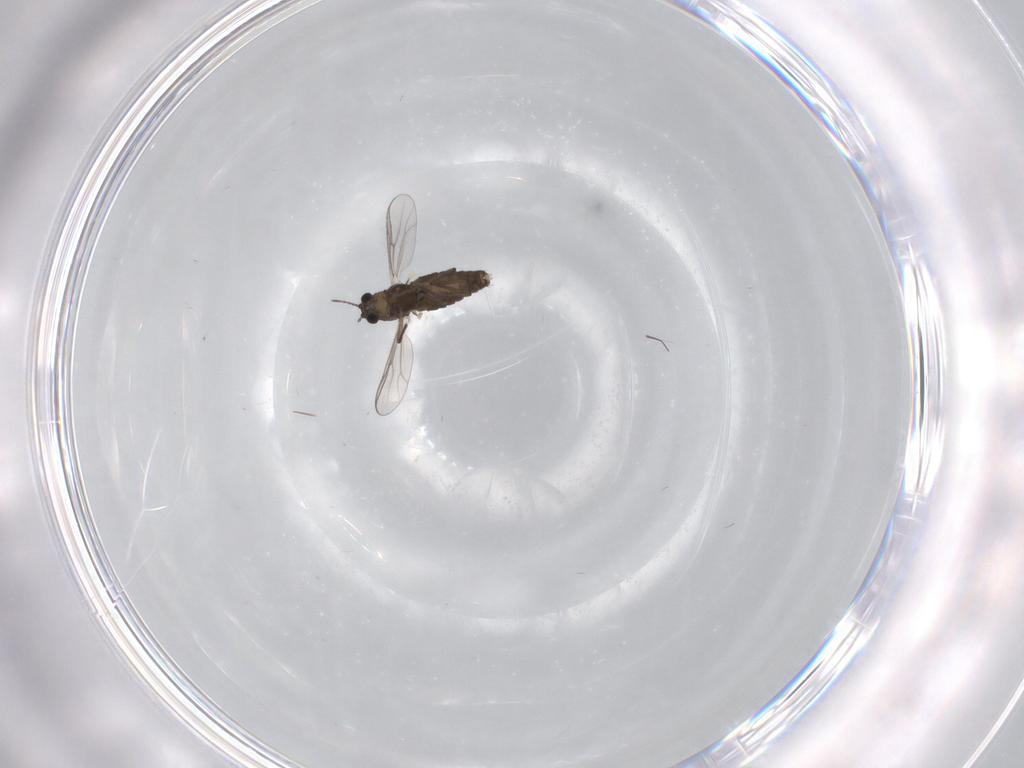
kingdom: Animalia
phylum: Arthropoda
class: Insecta
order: Diptera
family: Chironomidae
